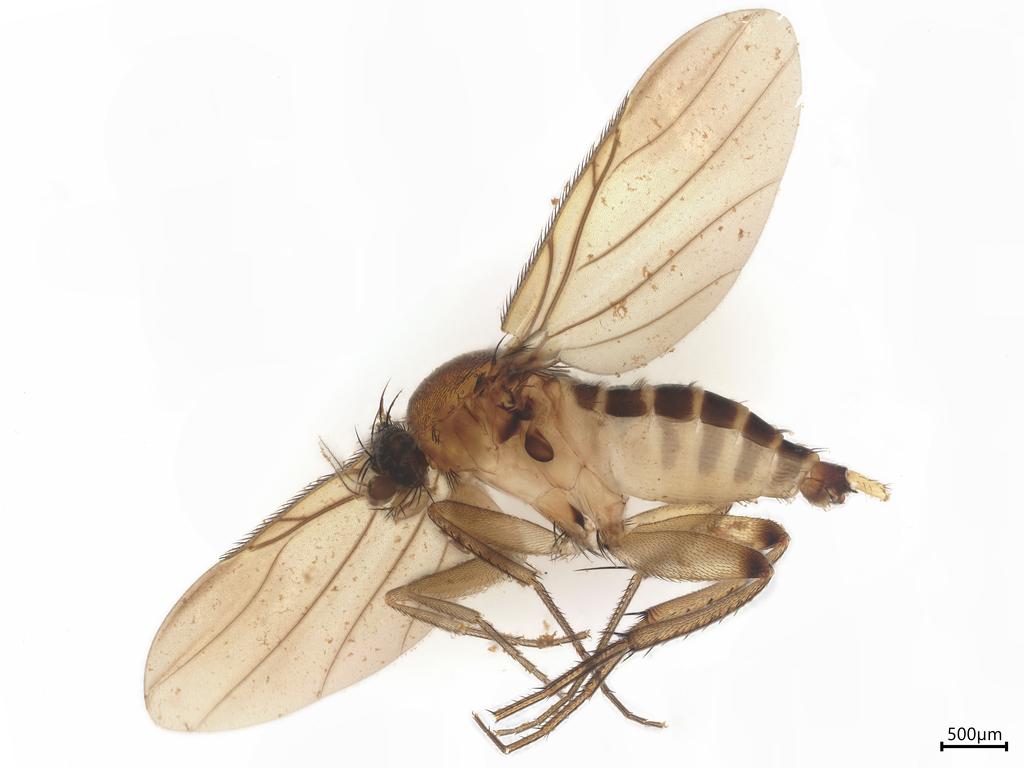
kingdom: Animalia
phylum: Arthropoda
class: Insecta
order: Diptera
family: Phoridae
